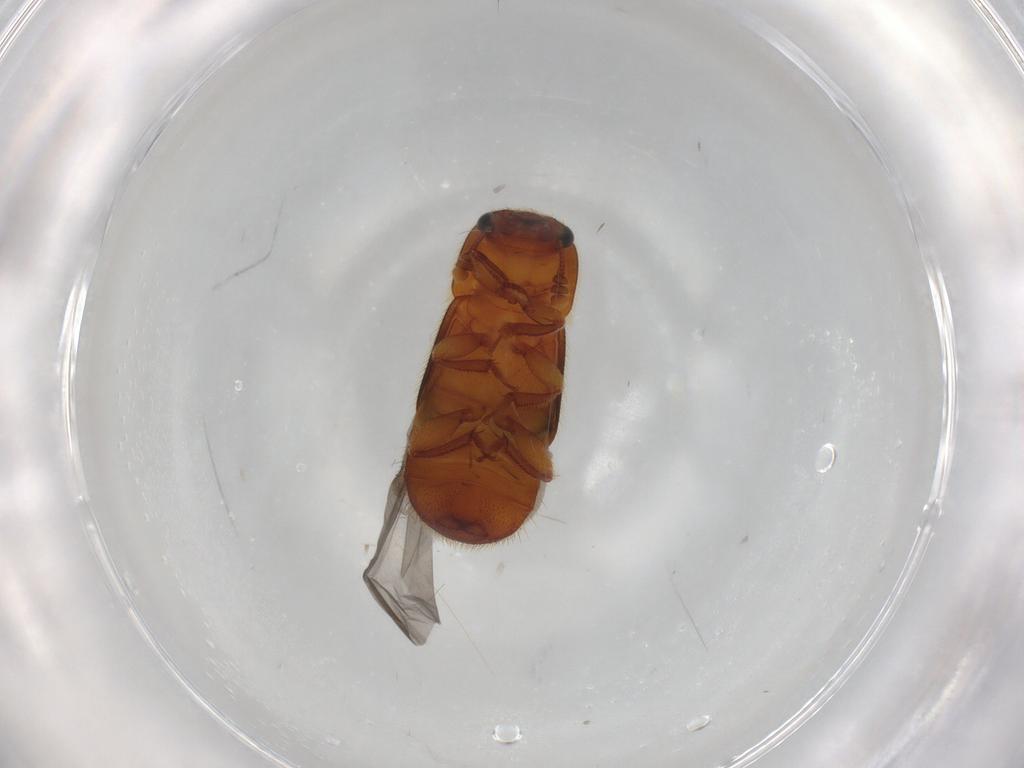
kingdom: Animalia
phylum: Arthropoda
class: Insecta
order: Coleoptera
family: Nitidulidae
